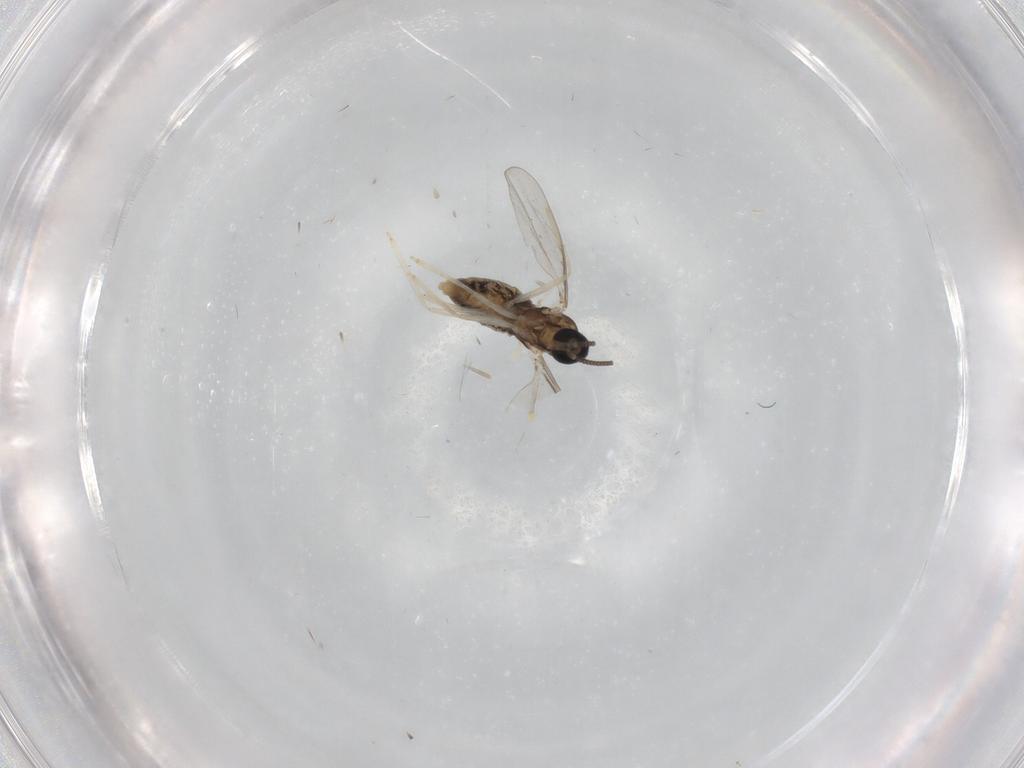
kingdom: Animalia
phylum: Arthropoda
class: Insecta
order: Diptera
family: Cecidomyiidae
